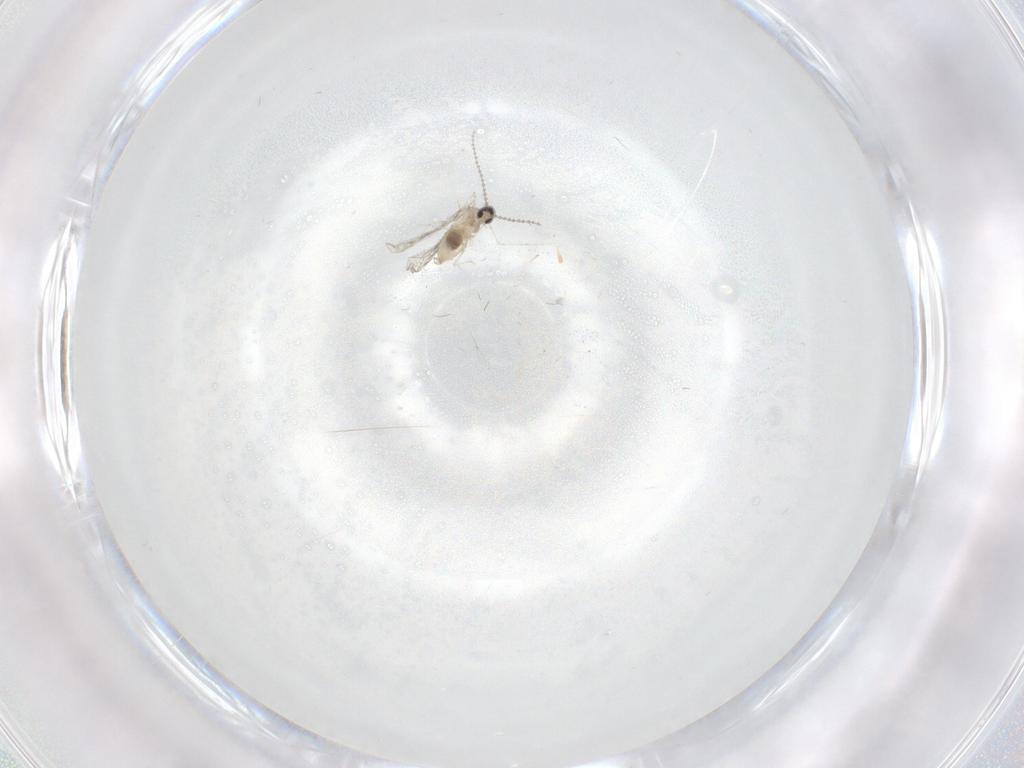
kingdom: Animalia
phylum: Arthropoda
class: Insecta
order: Diptera
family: Cecidomyiidae
